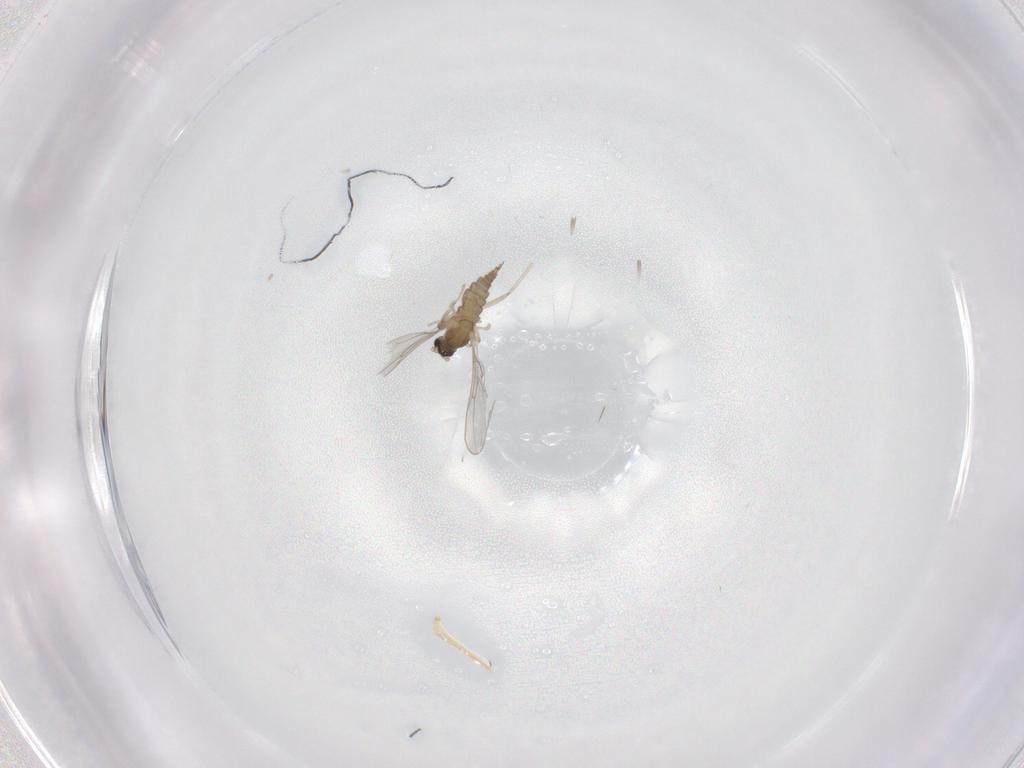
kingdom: Animalia
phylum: Arthropoda
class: Insecta
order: Diptera
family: Cecidomyiidae
